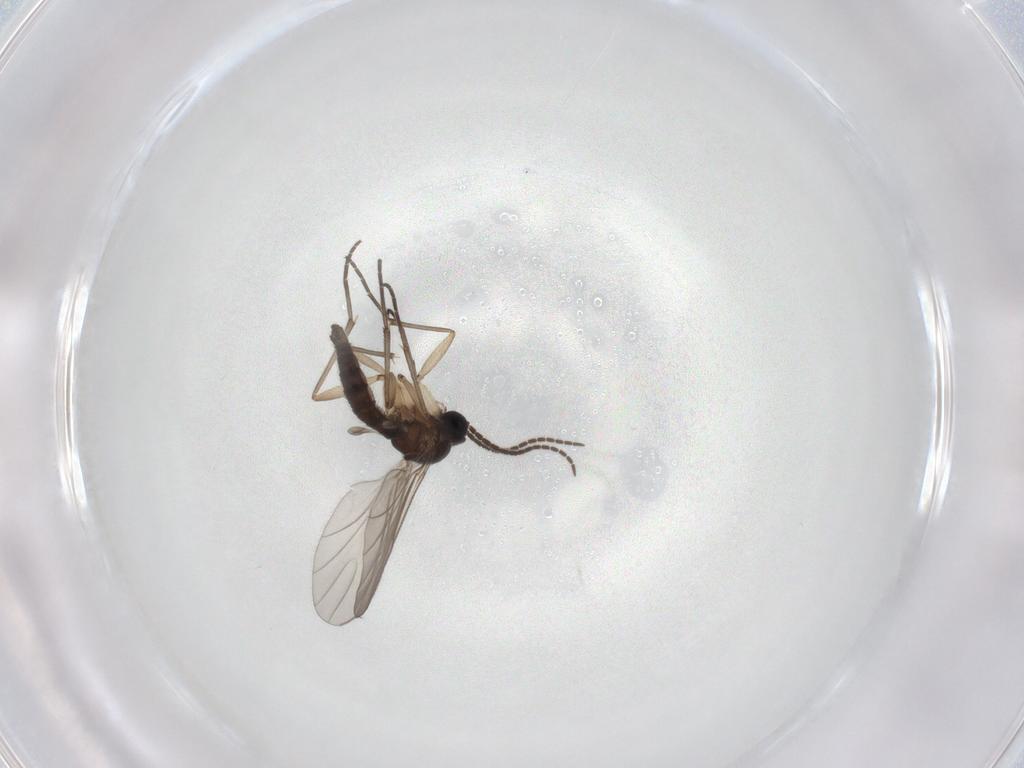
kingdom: Animalia
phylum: Arthropoda
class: Insecta
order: Diptera
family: Sciaridae
